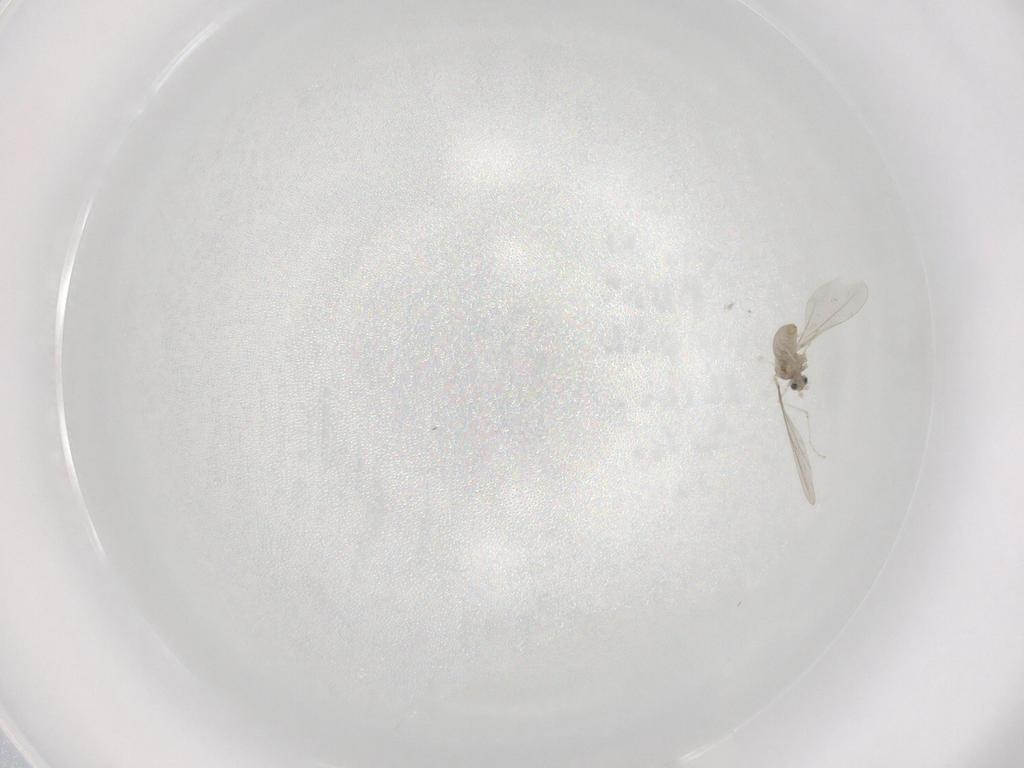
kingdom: Animalia
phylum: Arthropoda
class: Insecta
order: Diptera
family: Cecidomyiidae
